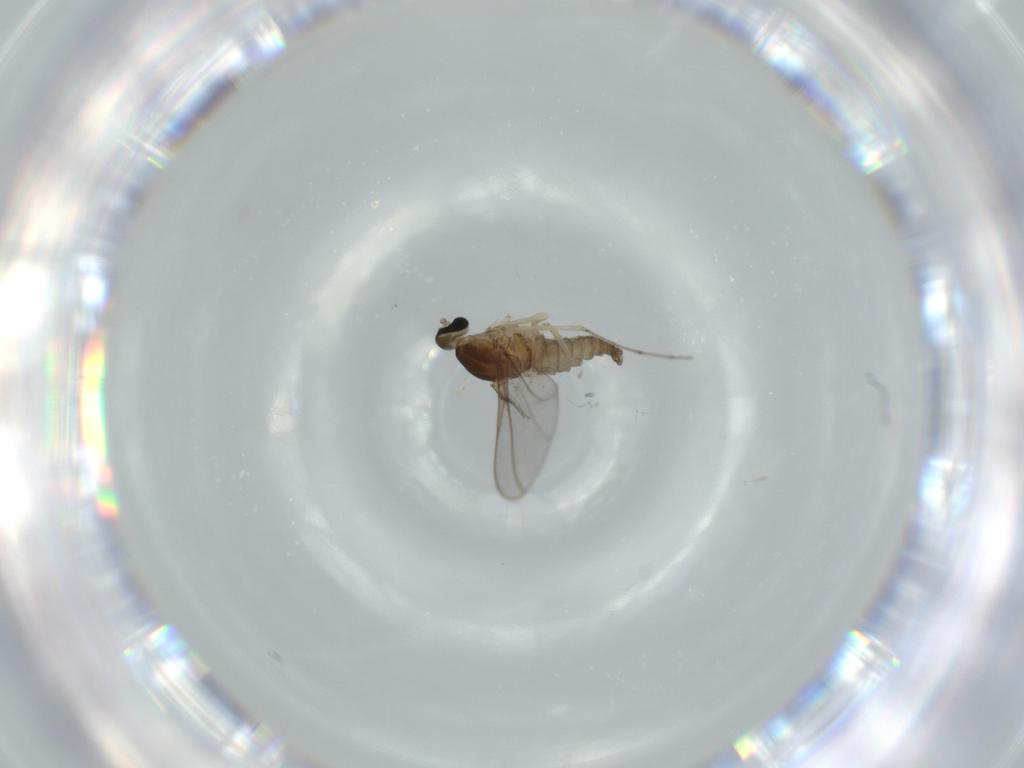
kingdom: Animalia
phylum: Arthropoda
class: Insecta
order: Diptera
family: Cecidomyiidae
